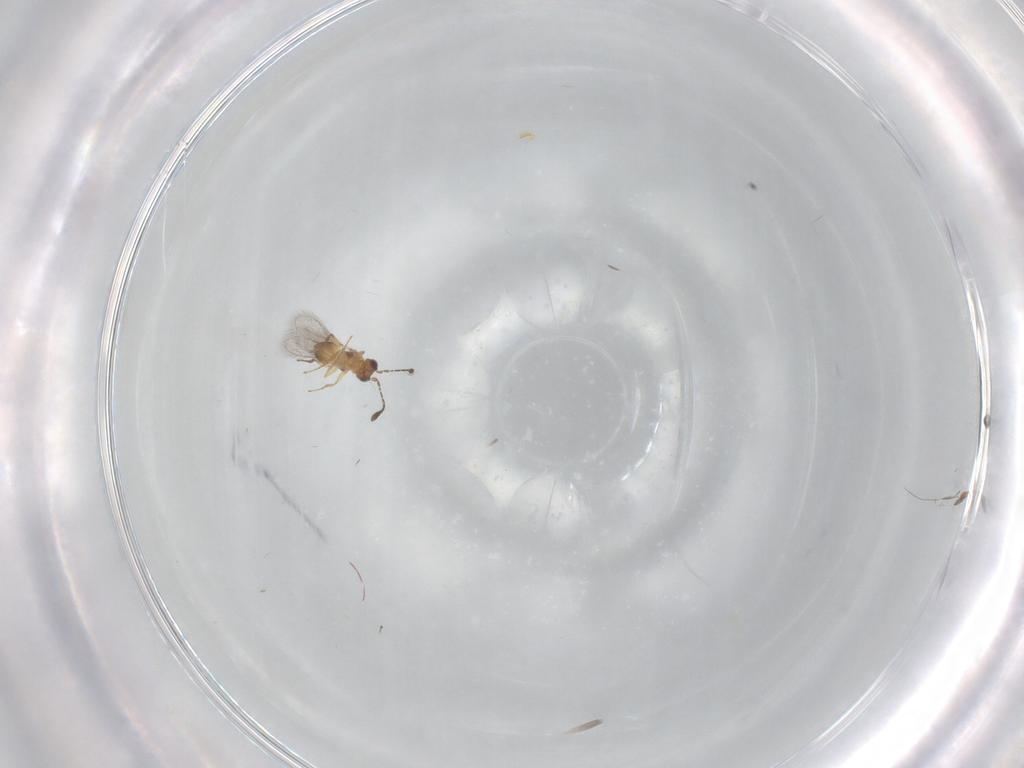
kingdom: Animalia
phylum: Arthropoda
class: Insecta
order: Hymenoptera
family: Mymaridae
